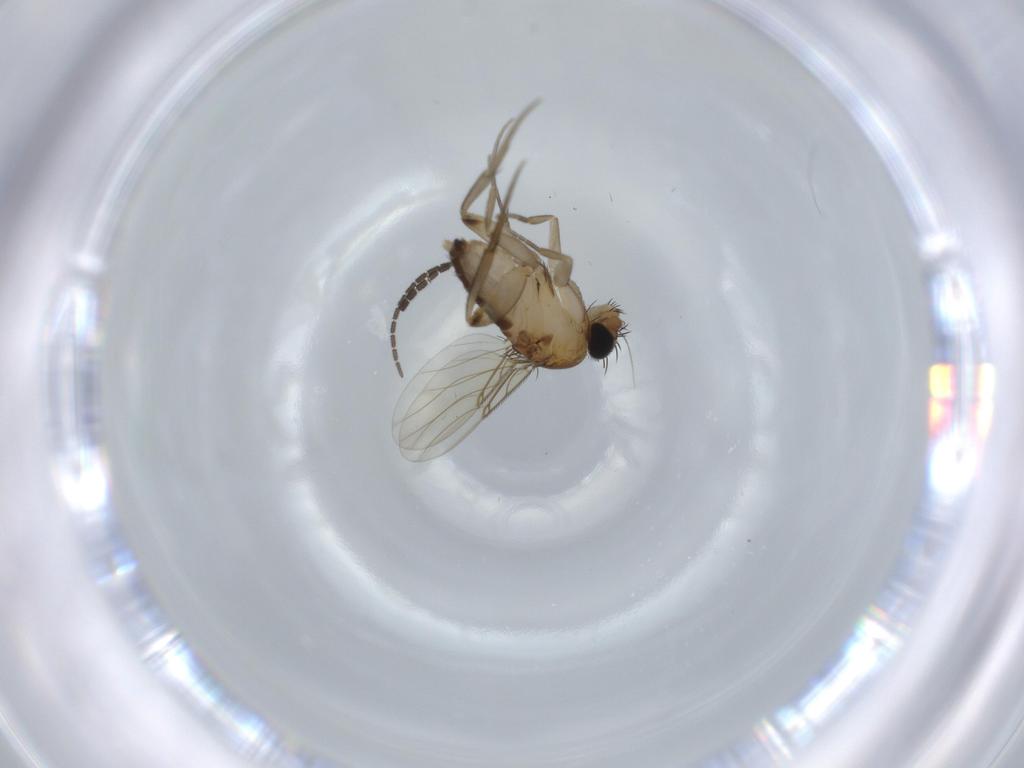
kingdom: Animalia
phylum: Arthropoda
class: Insecta
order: Diptera
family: Phoridae
